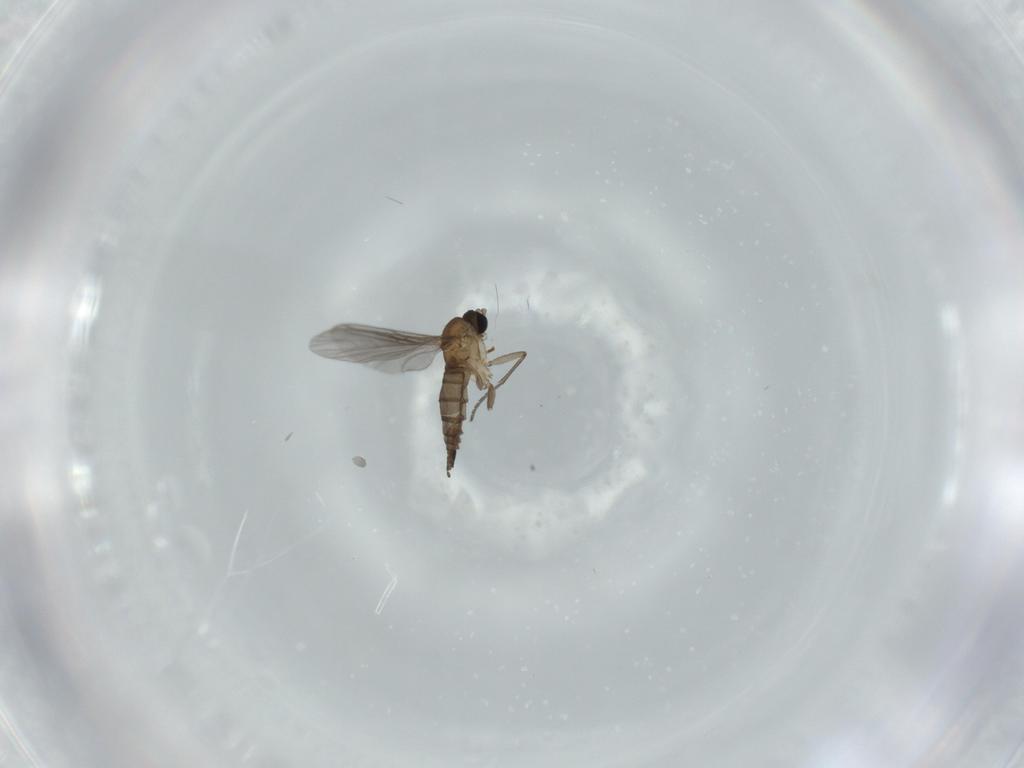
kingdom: Animalia
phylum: Arthropoda
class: Insecta
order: Diptera
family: Sciaridae
